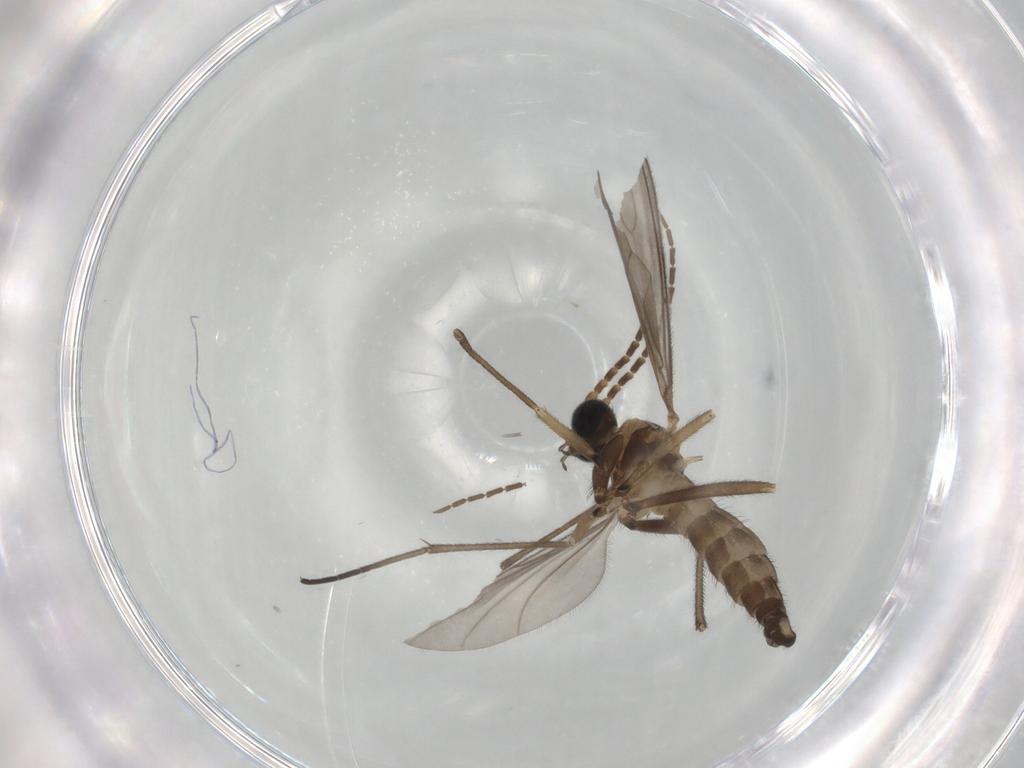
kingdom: Animalia
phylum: Arthropoda
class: Insecta
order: Diptera
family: Sciaridae
